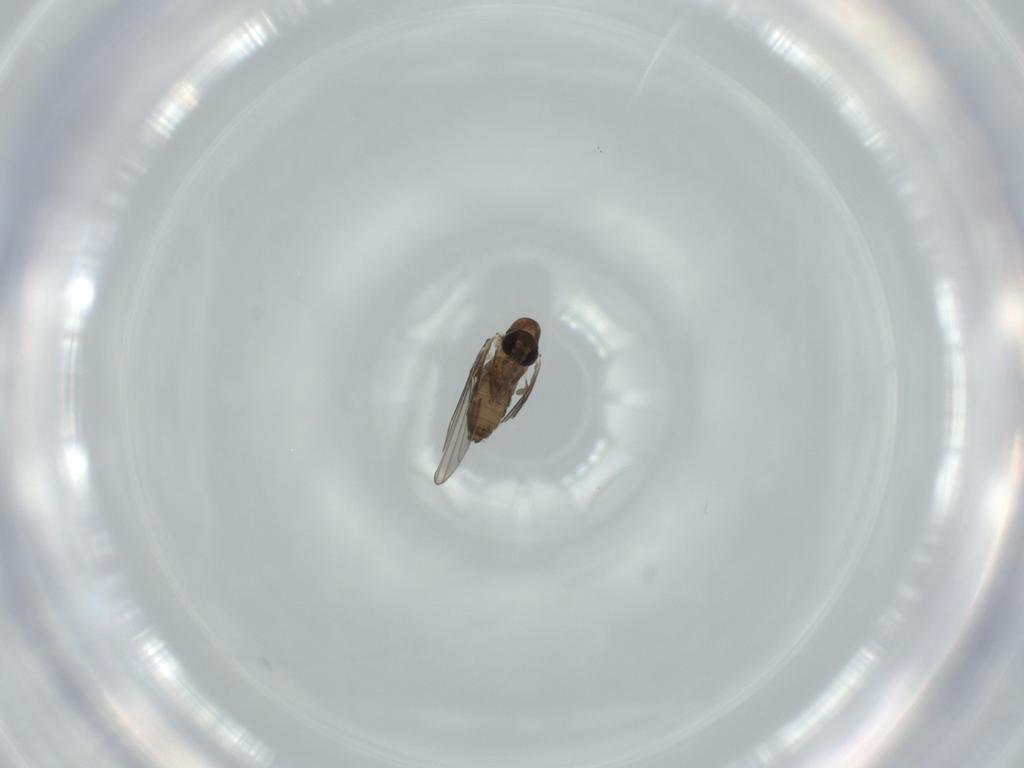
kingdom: Animalia
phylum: Arthropoda
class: Insecta
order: Diptera
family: Psychodidae
